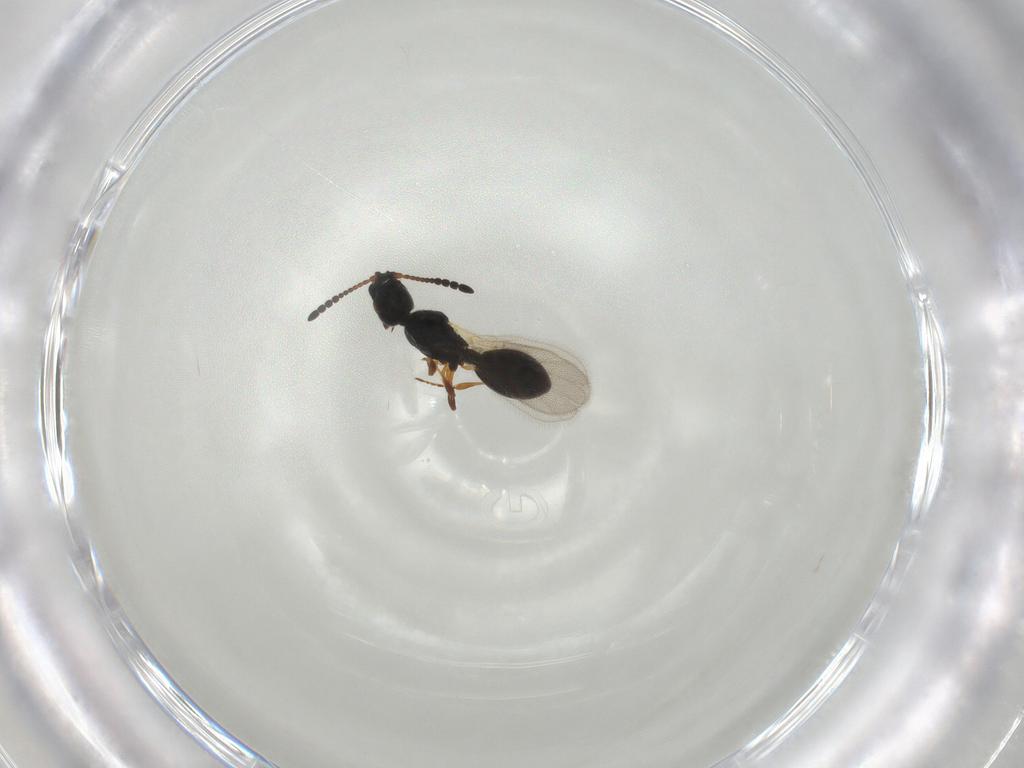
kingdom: Animalia
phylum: Arthropoda
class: Insecta
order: Hymenoptera
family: Diapriidae
